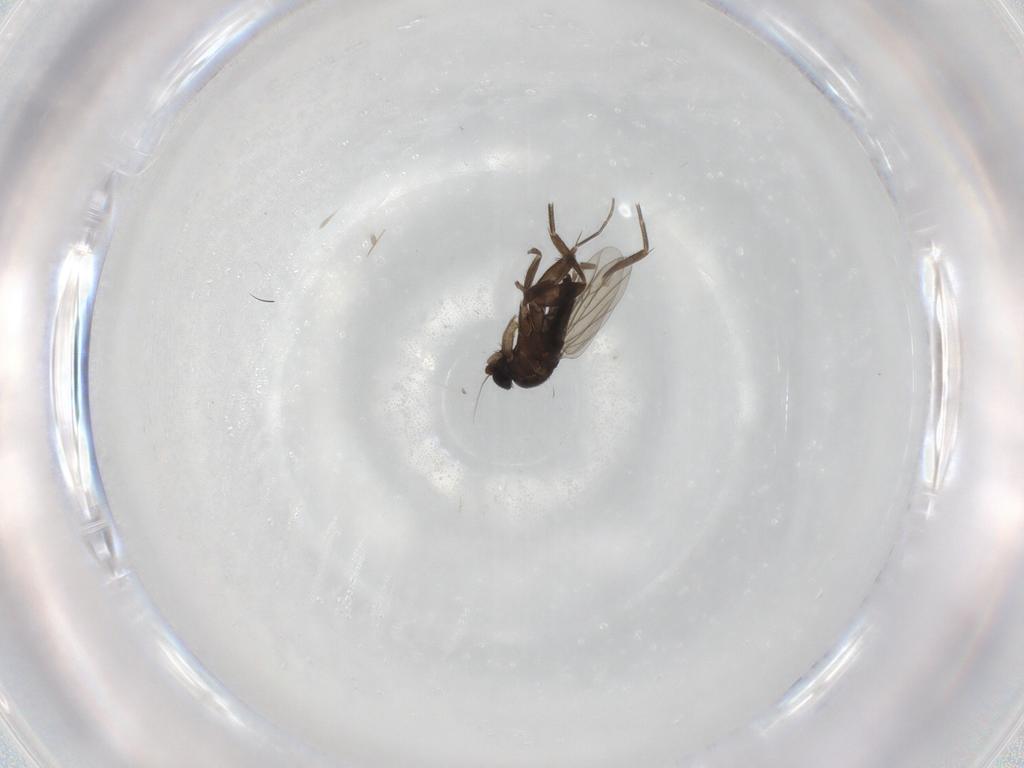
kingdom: Animalia
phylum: Arthropoda
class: Insecta
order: Diptera
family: Phoridae
